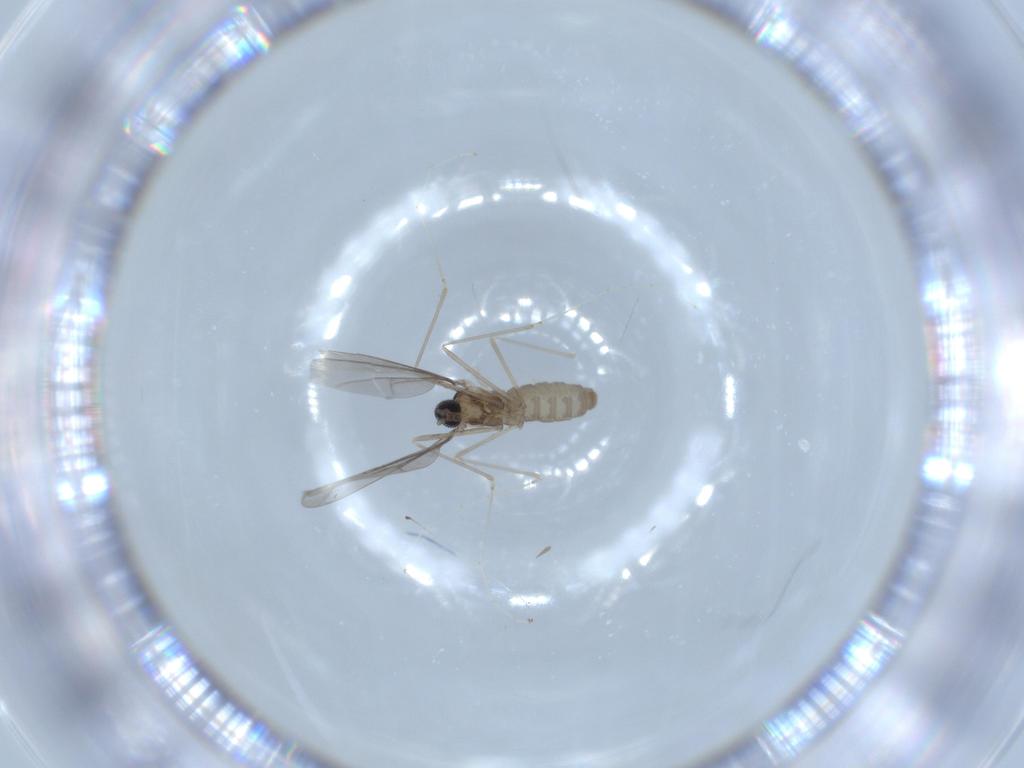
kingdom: Animalia
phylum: Arthropoda
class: Insecta
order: Diptera
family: Cecidomyiidae
